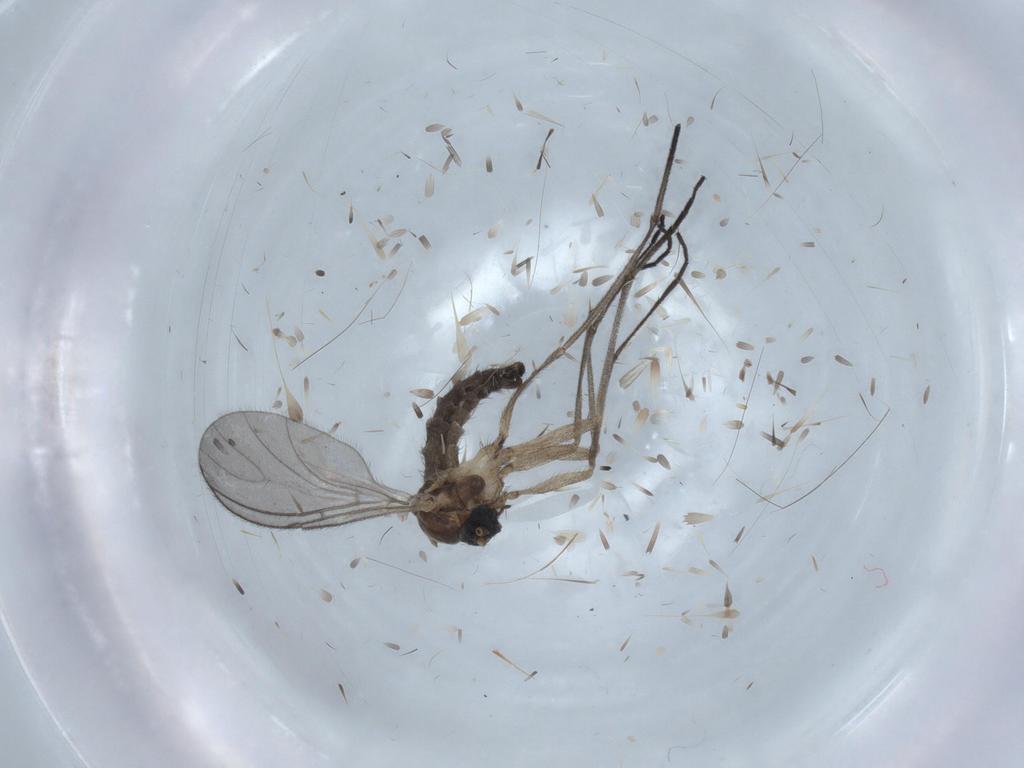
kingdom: Animalia
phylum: Arthropoda
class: Insecta
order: Diptera
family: Sciaridae
